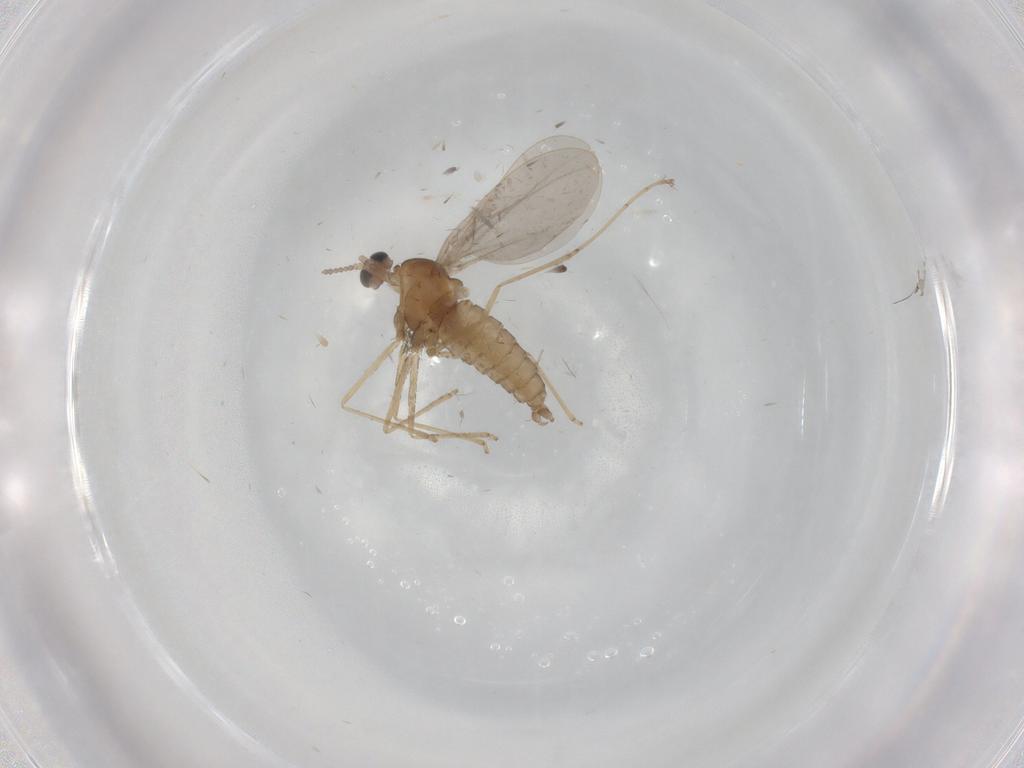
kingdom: Animalia
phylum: Arthropoda
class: Insecta
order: Diptera
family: Cecidomyiidae
